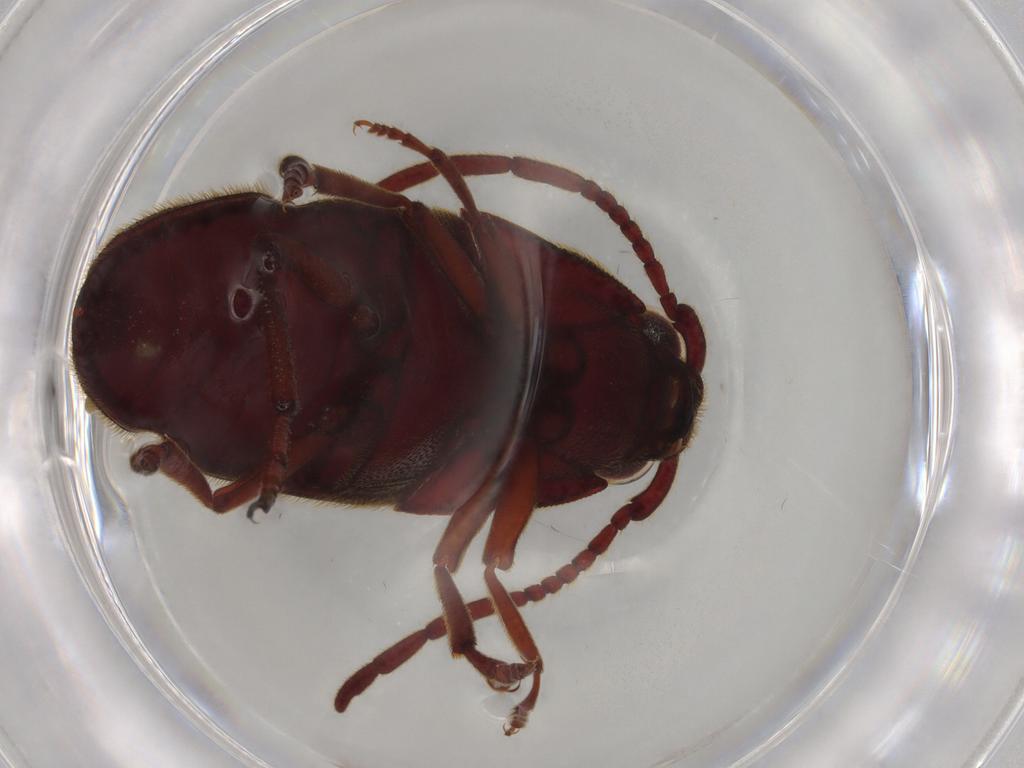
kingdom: Animalia
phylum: Arthropoda
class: Insecta
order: Coleoptera
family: Eucnemidae
